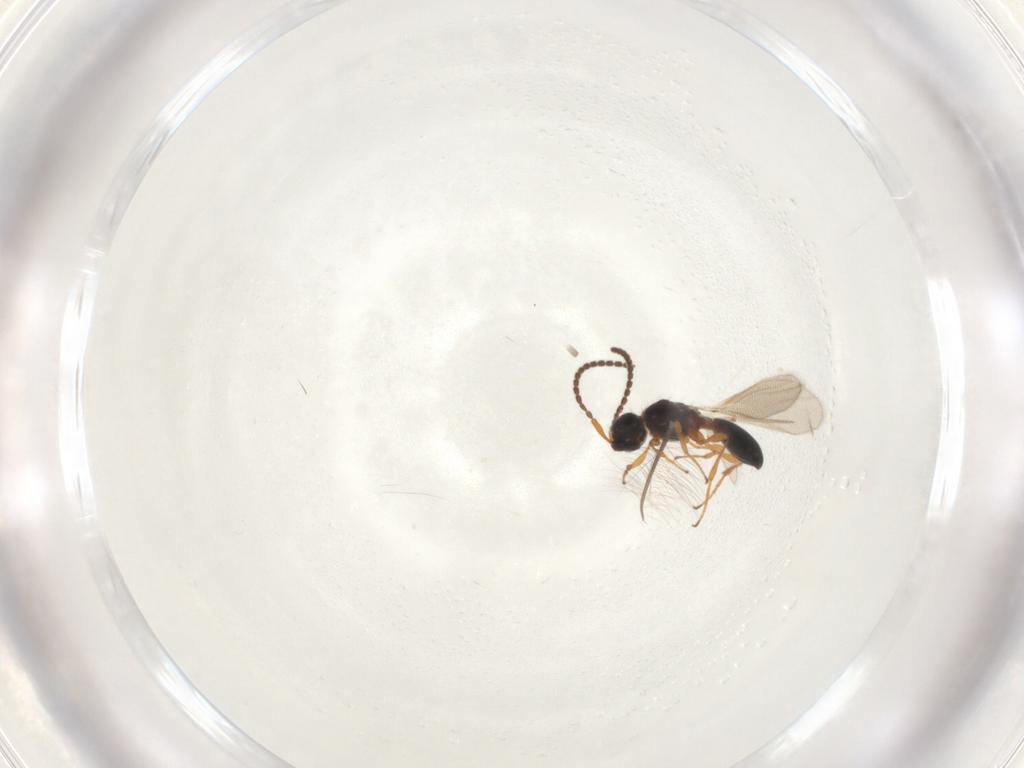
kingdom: Animalia
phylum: Arthropoda
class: Insecta
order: Hymenoptera
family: Diapriidae
